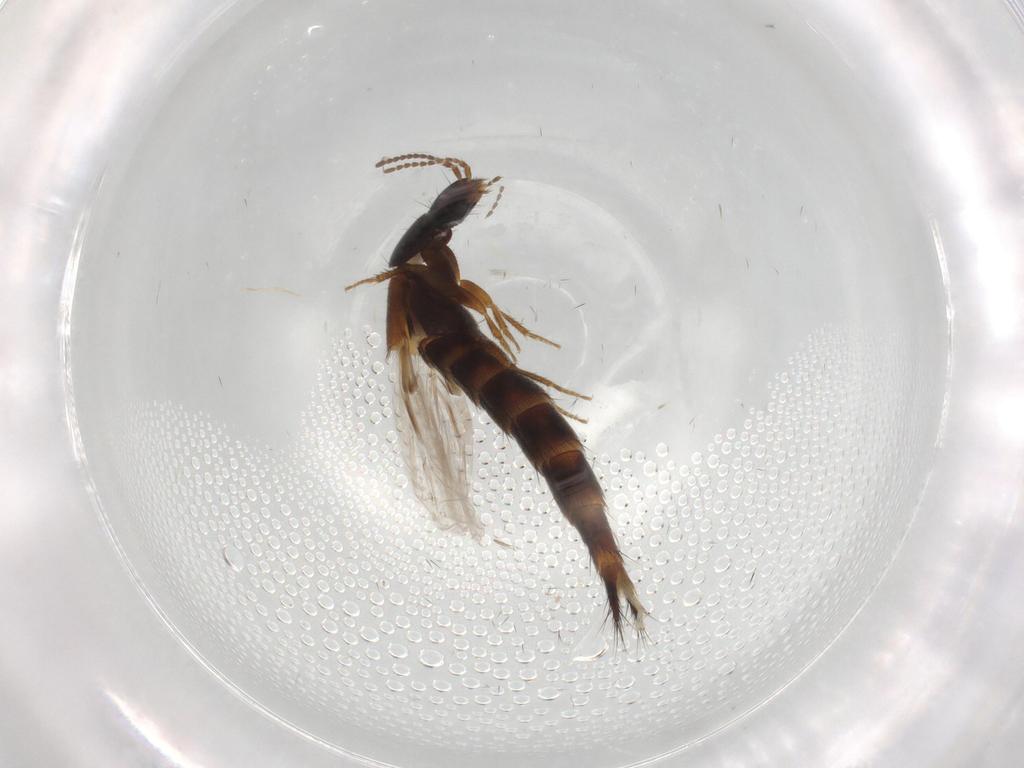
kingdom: Animalia
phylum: Arthropoda
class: Insecta
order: Coleoptera
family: Staphylinidae
